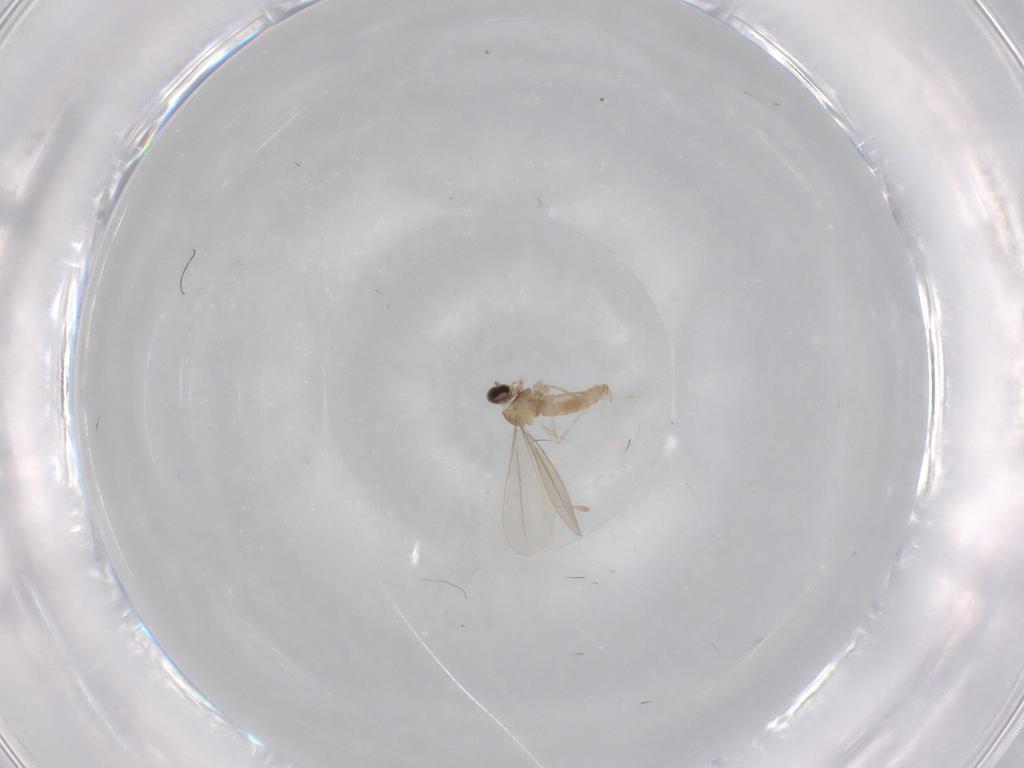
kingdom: Animalia
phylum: Arthropoda
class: Insecta
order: Diptera
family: Cecidomyiidae
